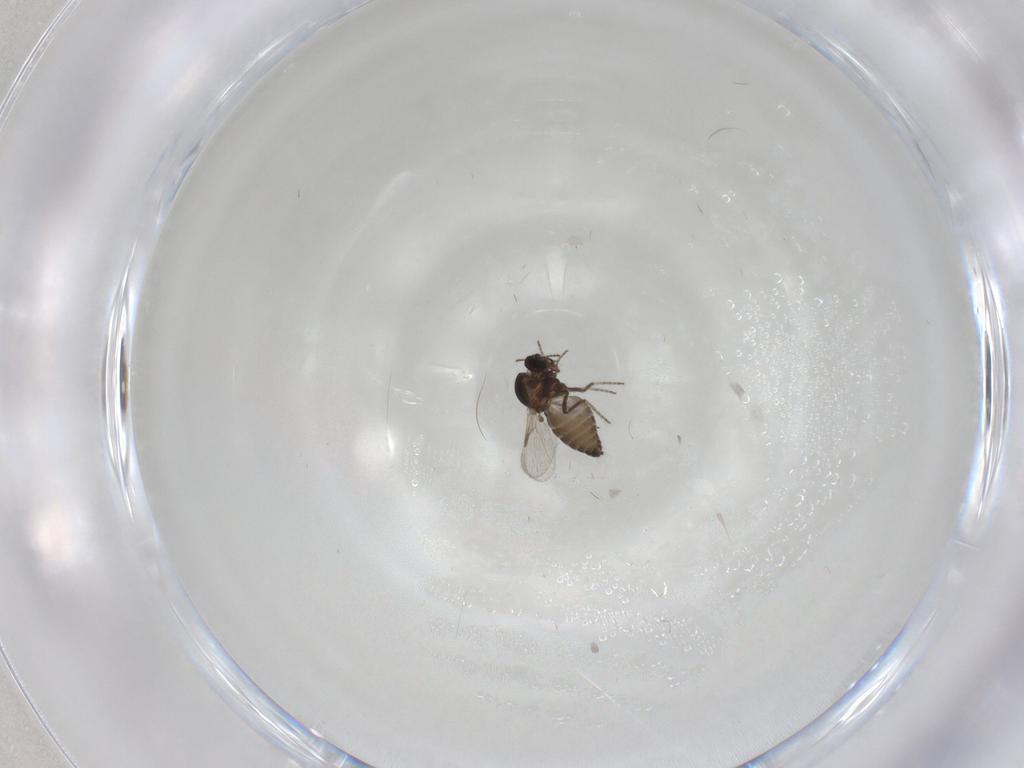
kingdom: Animalia
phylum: Arthropoda
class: Insecta
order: Diptera
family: Ceratopogonidae
